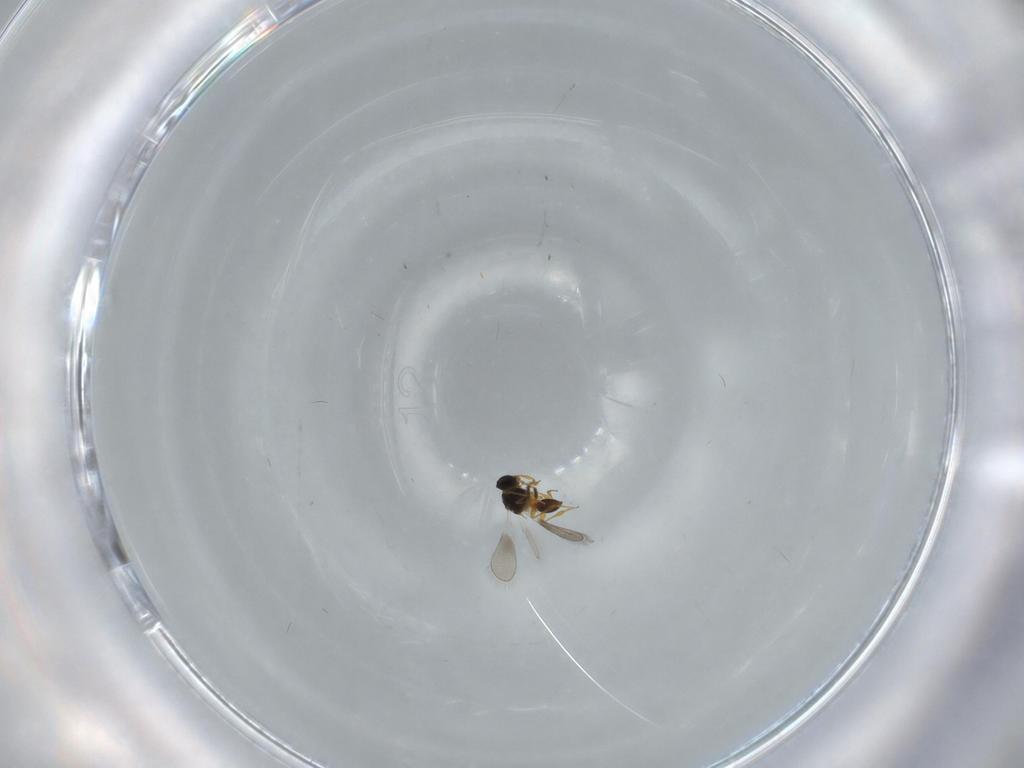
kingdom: Animalia
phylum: Arthropoda
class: Insecta
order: Hymenoptera
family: Platygastridae
